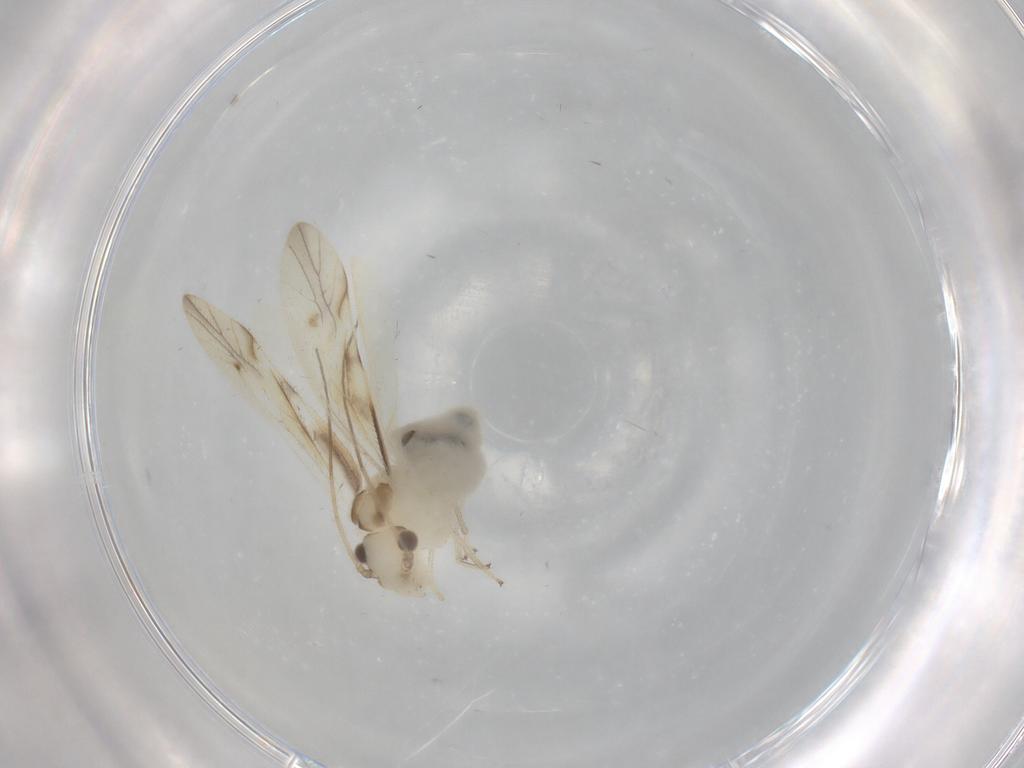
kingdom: Animalia
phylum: Arthropoda
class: Insecta
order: Psocodea
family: Caeciliusidae
